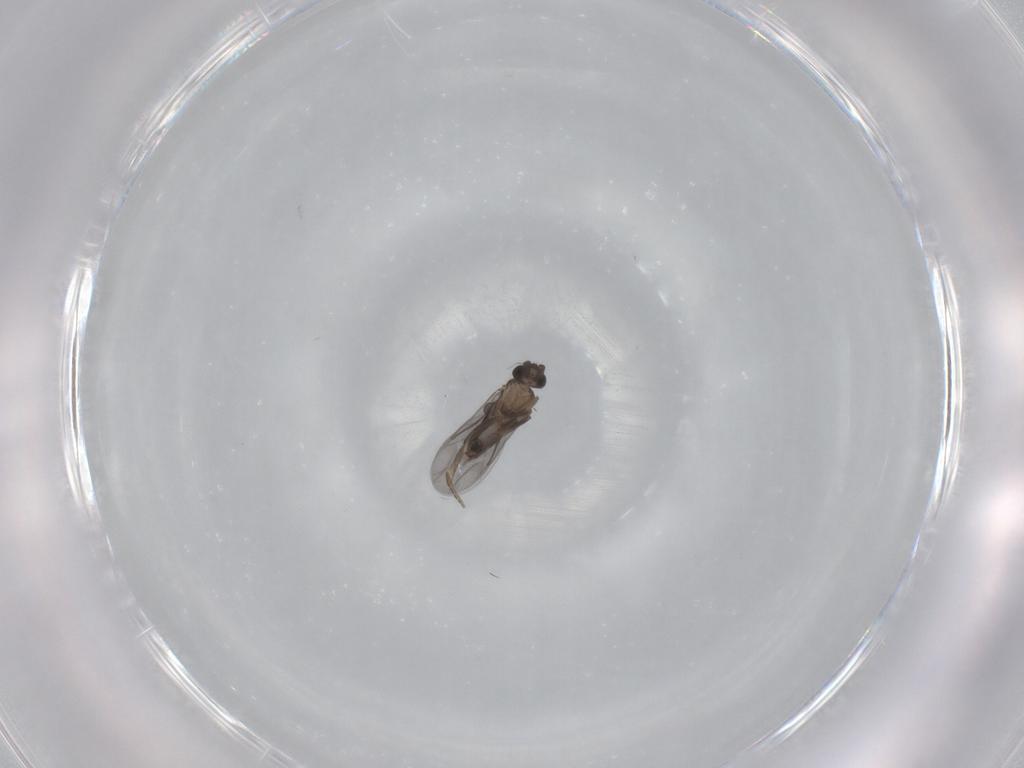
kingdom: Animalia
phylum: Arthropoda
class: Insecta
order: Diptera
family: Sciaridae
